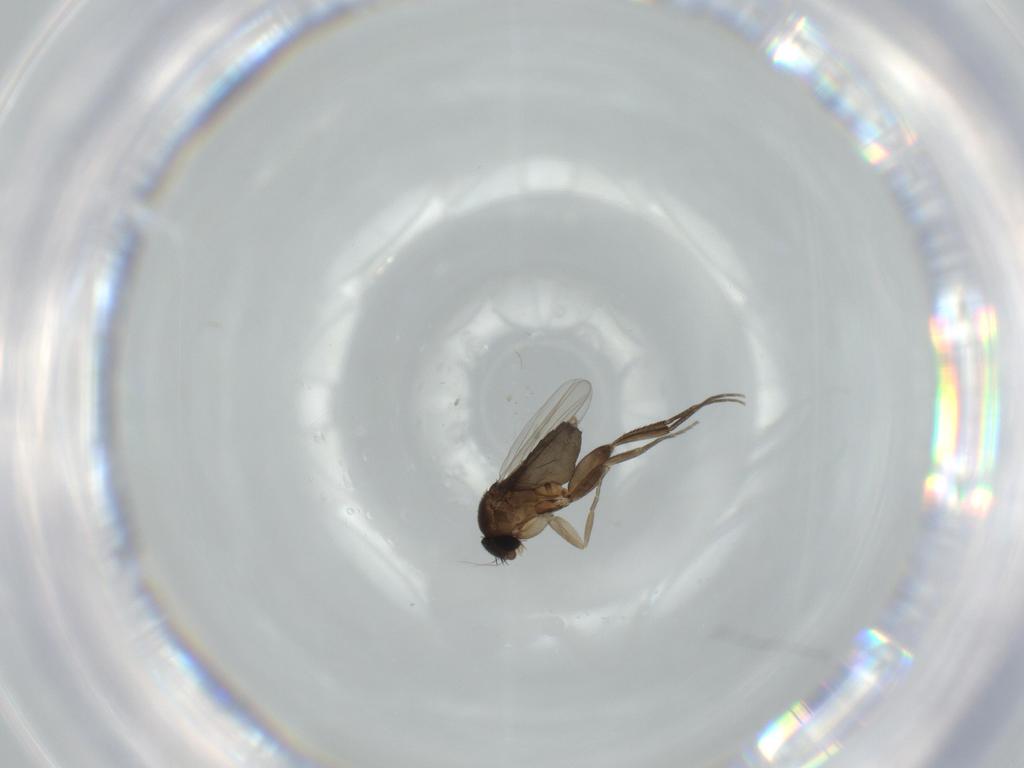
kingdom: Animalia
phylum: Arthropoda
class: Insecta
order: Diptera
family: Phoridae
